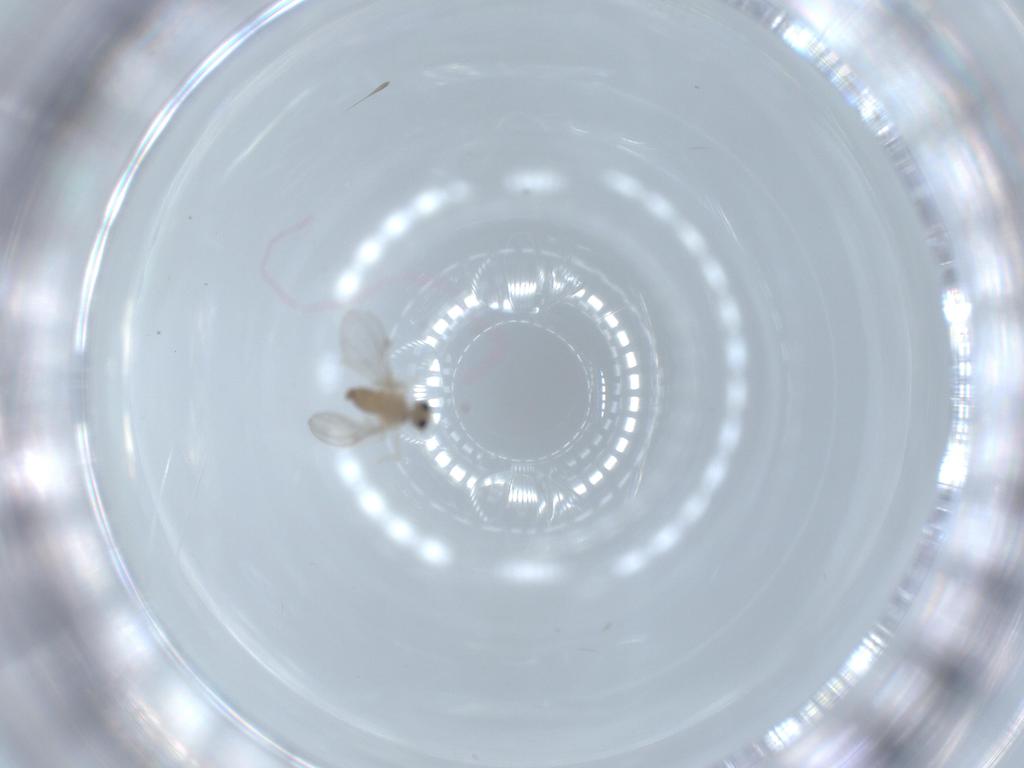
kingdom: Animalia
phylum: Arthropoda
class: Insecta
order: Diptera
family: Cecidomyiidae
